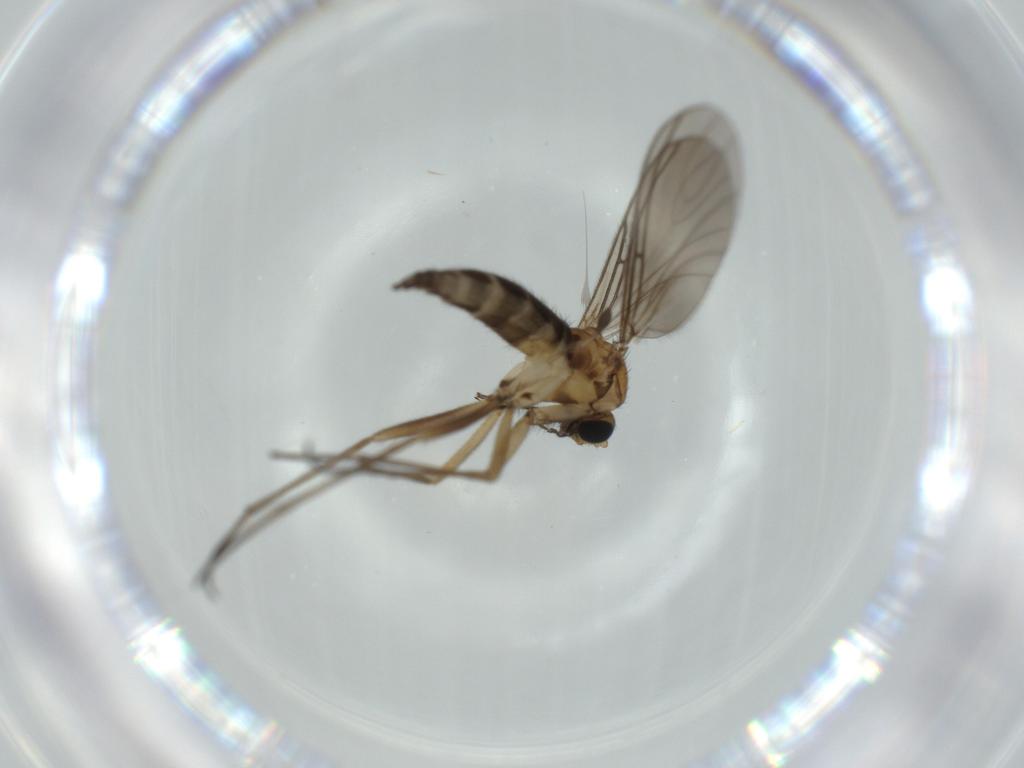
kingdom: Animalia
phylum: Arthropoda
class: Insecta
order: Diptera
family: Sciaridae
